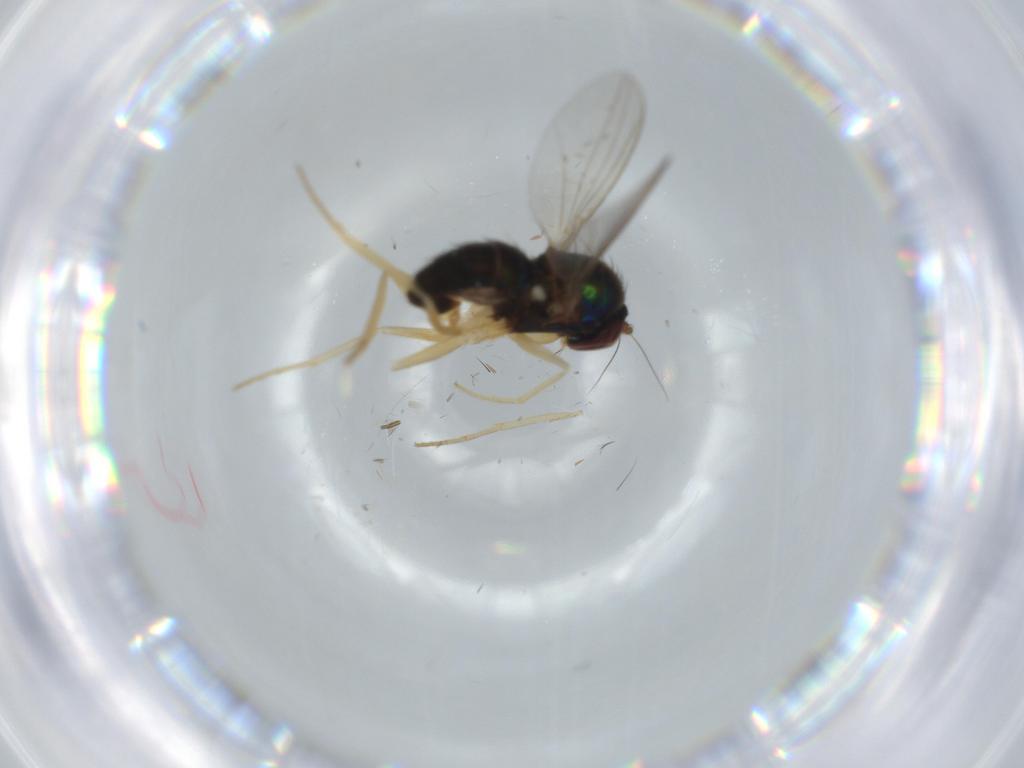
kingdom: Animalia
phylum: Arthropoda
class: Insecta
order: Diptera
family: Dolichopodidae
